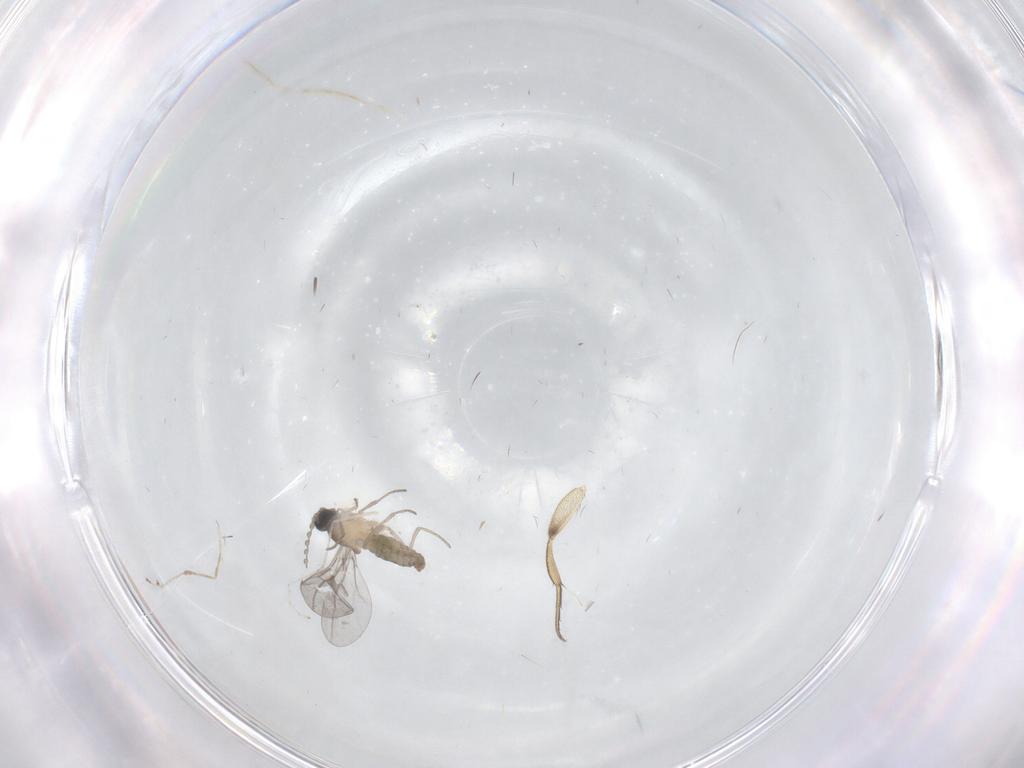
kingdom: Animalia
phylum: Arthropoda
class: Insecta
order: Diptera
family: Cecidomyiidae
